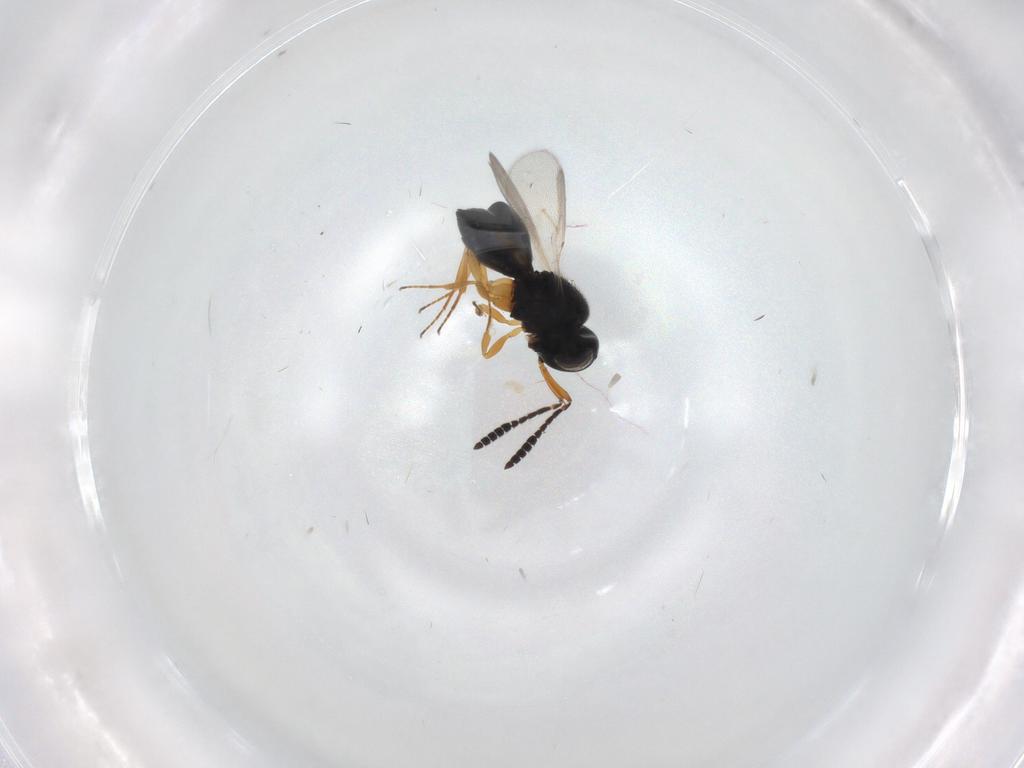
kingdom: Animalia
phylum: Arthropoda
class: Insecta
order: Hymenoptera
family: Scelionidae
